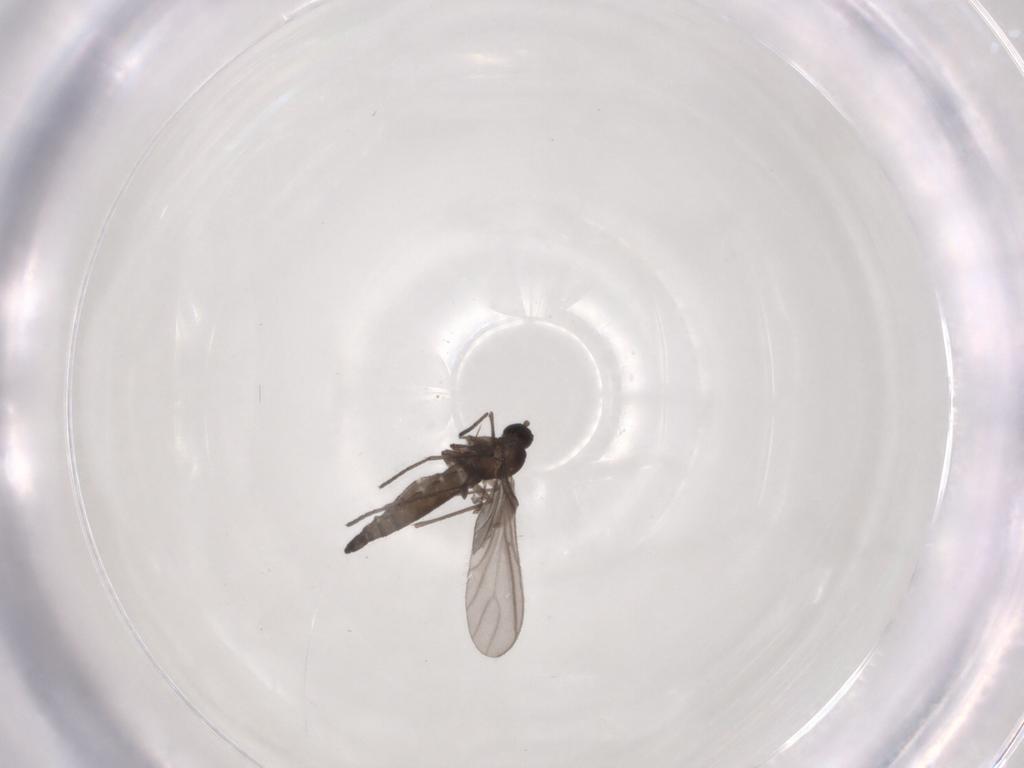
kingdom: Animalia
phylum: Arthropoda
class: Insecta
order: Diptera
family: Sciaridae
